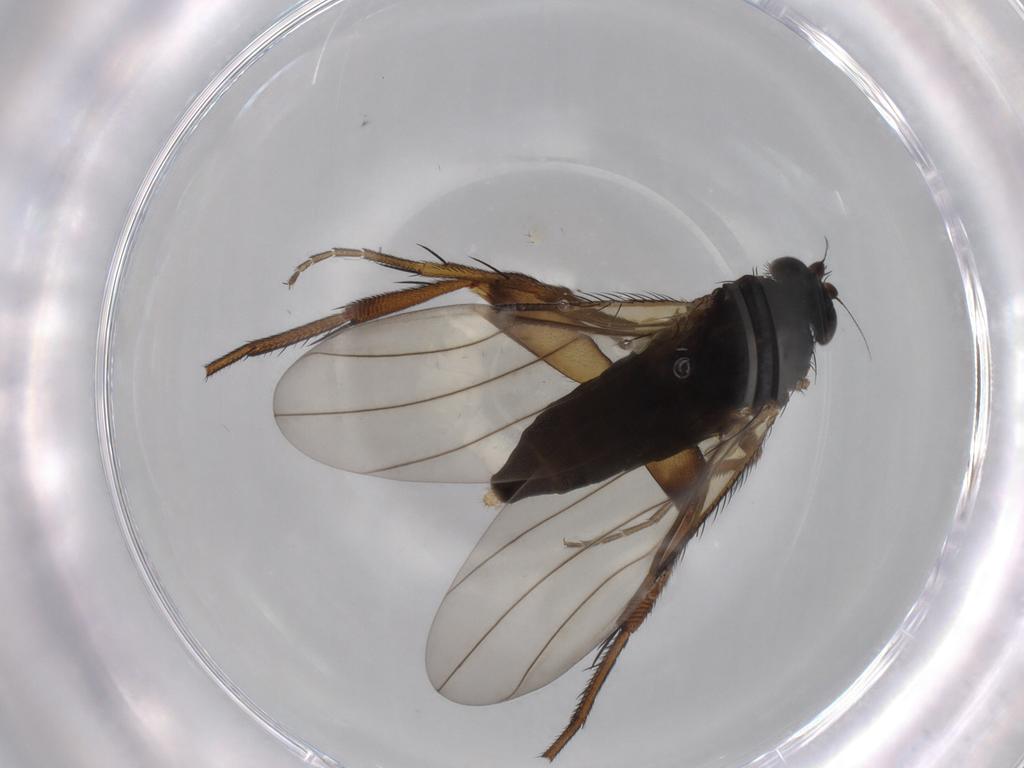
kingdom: Animalia
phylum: Arthropoda
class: Insecta
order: Diptera
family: Phoridae
